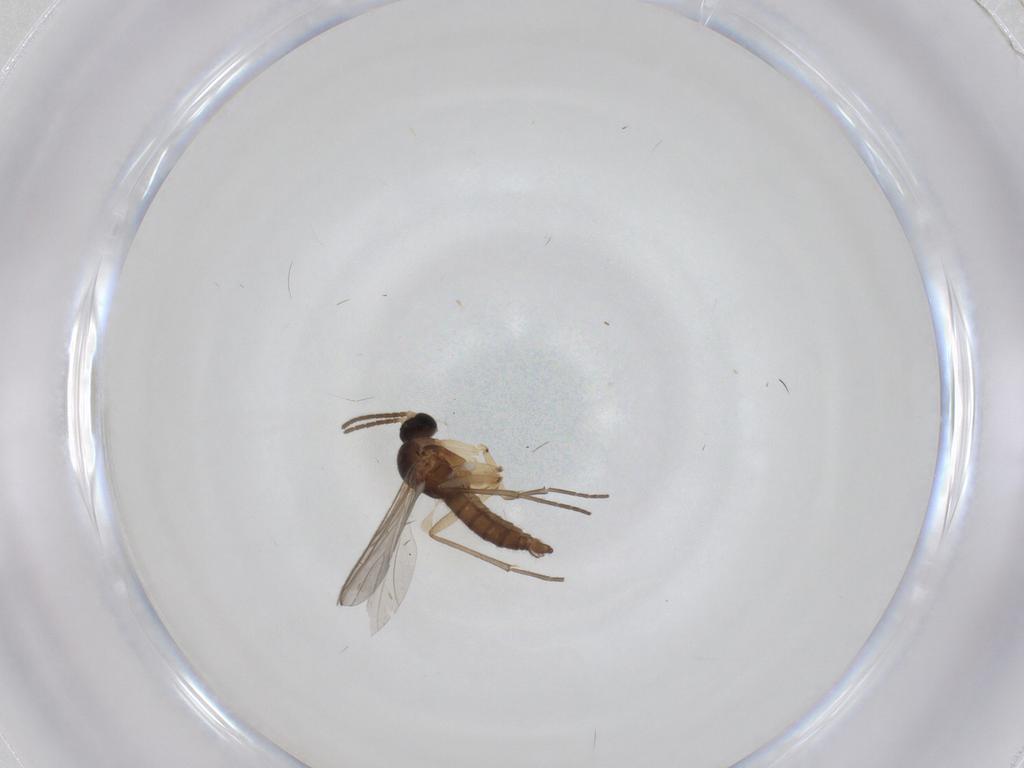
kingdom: Animalia
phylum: Arthropoda
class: Insecta
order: Diptera
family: Sciaridae
